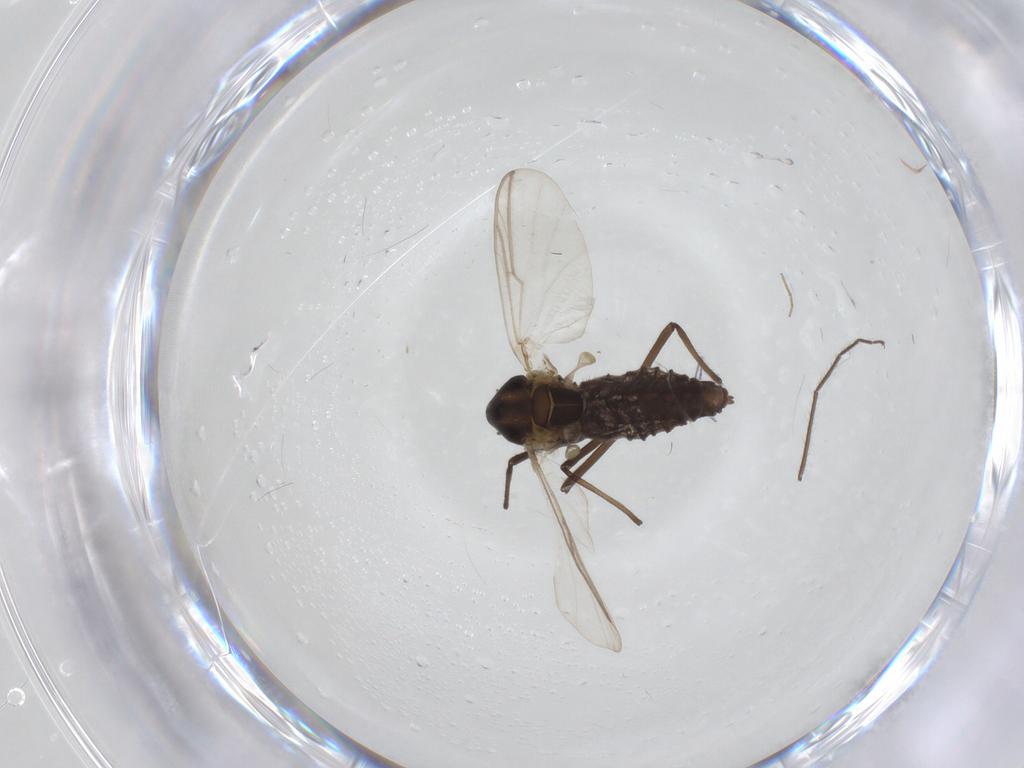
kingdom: Animalia
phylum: Arthropoda
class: Insecta
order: Diptera
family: Chironomidae
